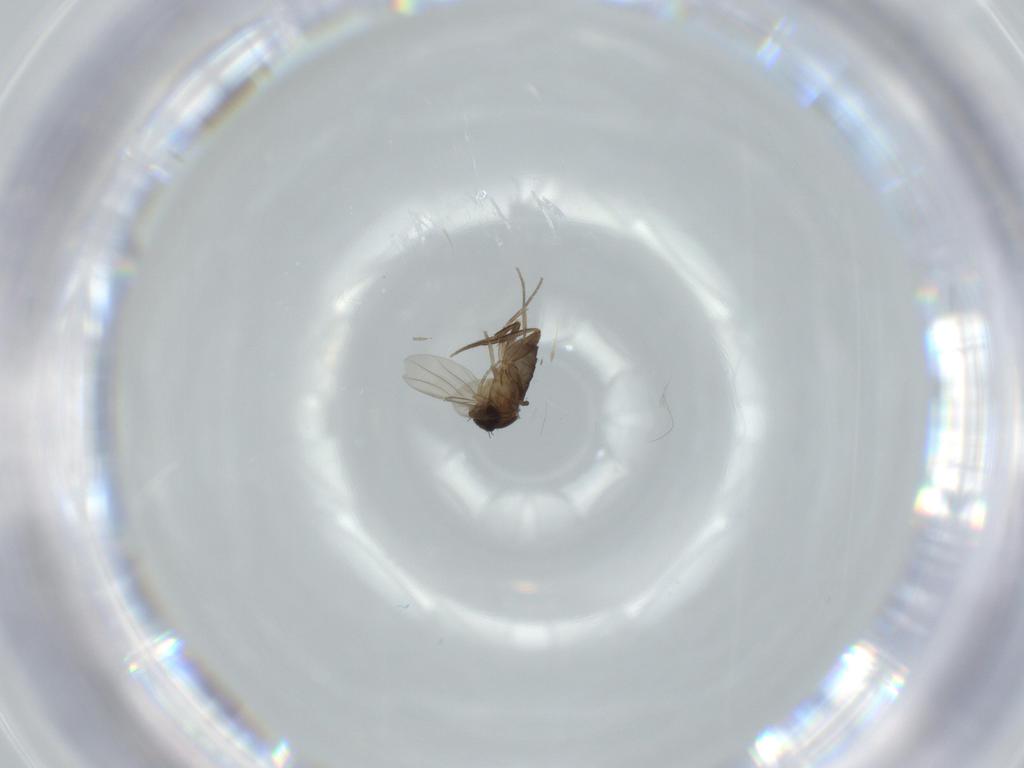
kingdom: Animalia
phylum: Arthropoda
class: Insecta
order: Diptera
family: Phoridae
